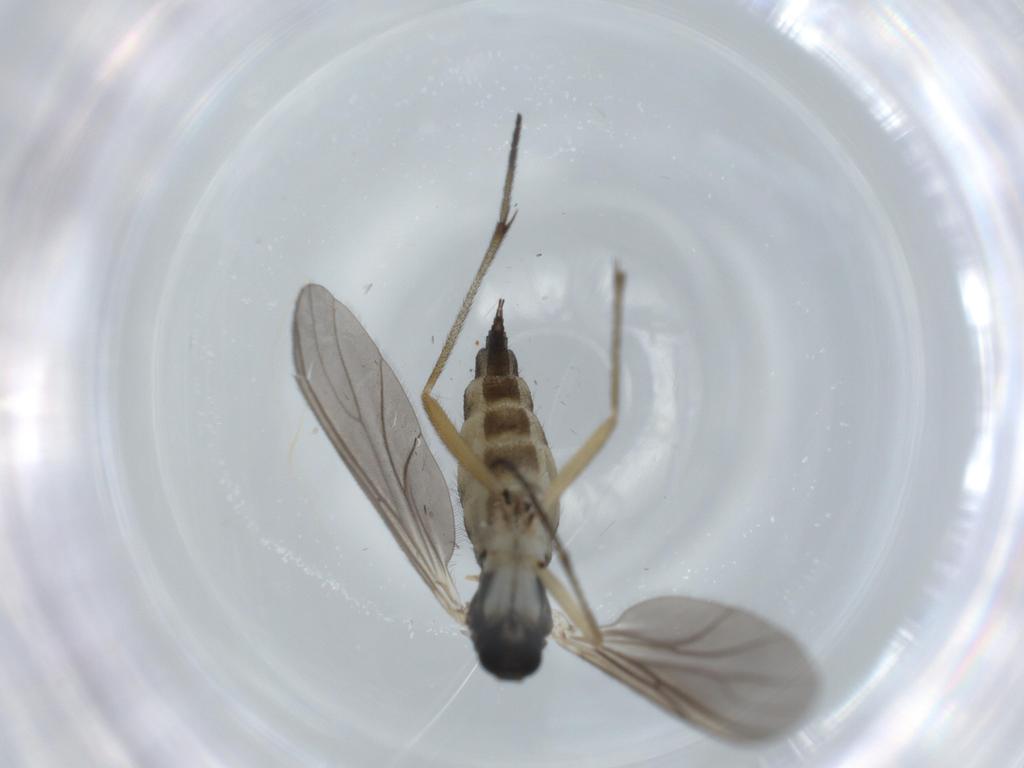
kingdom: Animalia
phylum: Arthropoda
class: Insecta
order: Diptera
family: Sciaridae
